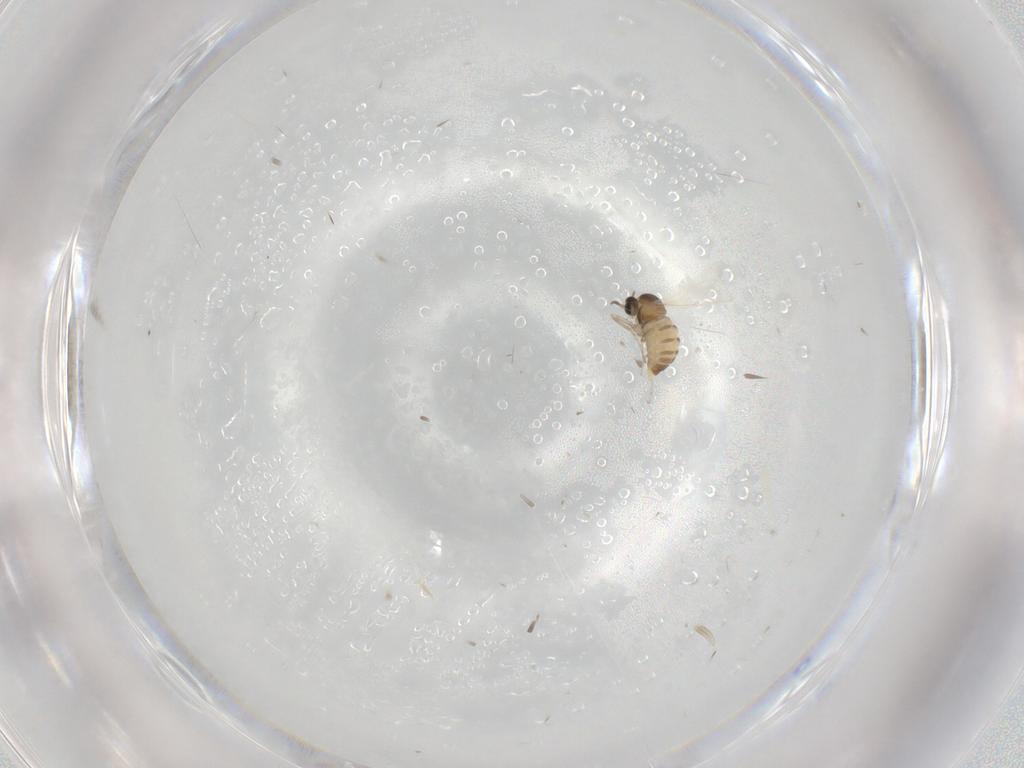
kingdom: Animalia
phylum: Arthropoda
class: Insecta
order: Diptera
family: Cecidomyiidae
